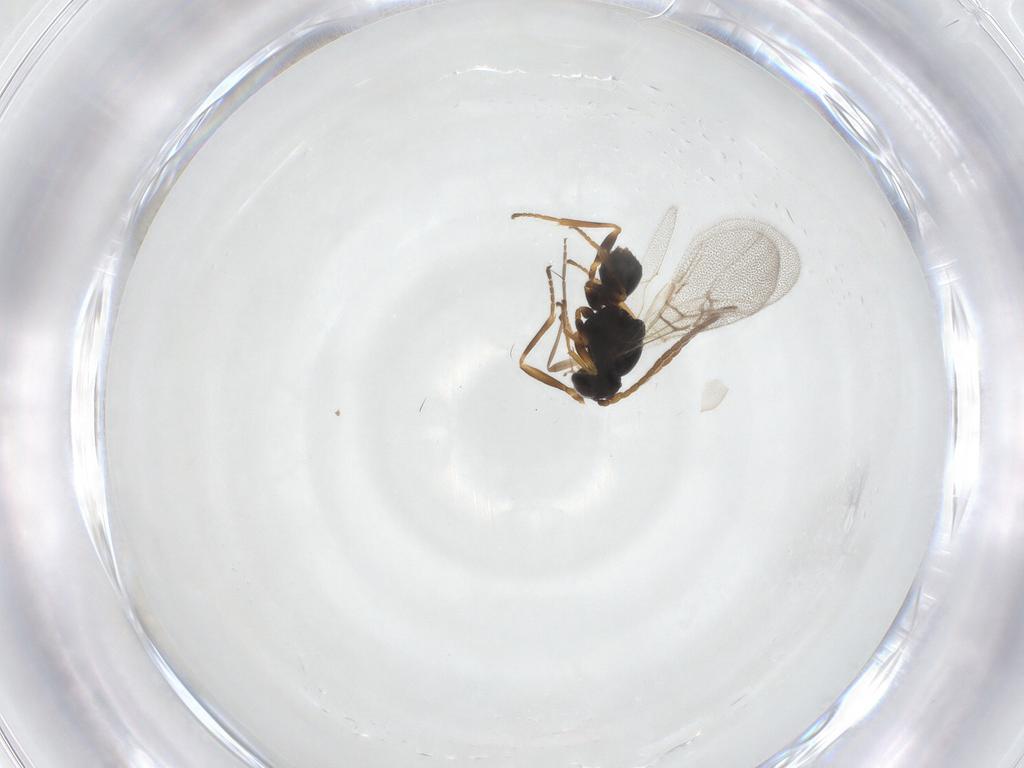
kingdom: Animalia
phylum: Arthropoda
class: Insecta
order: Hymenoptera
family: Cynipidae
